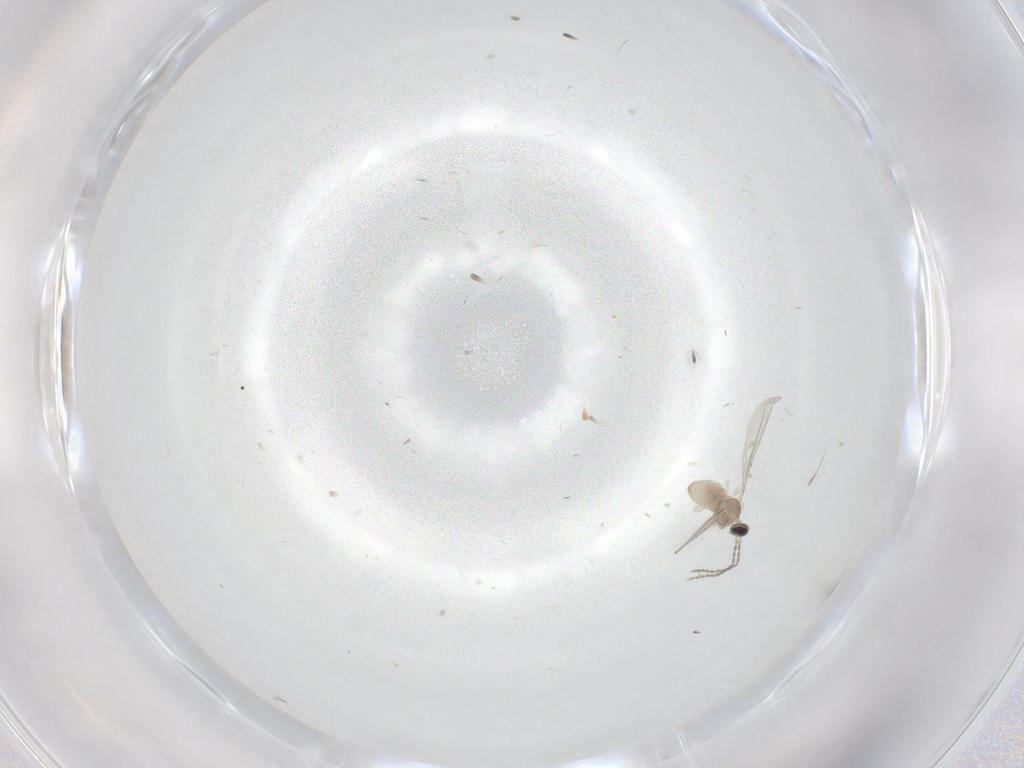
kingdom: Animalia
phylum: Arthropoda
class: Insecta
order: Diptera
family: Cecidomyiidae
